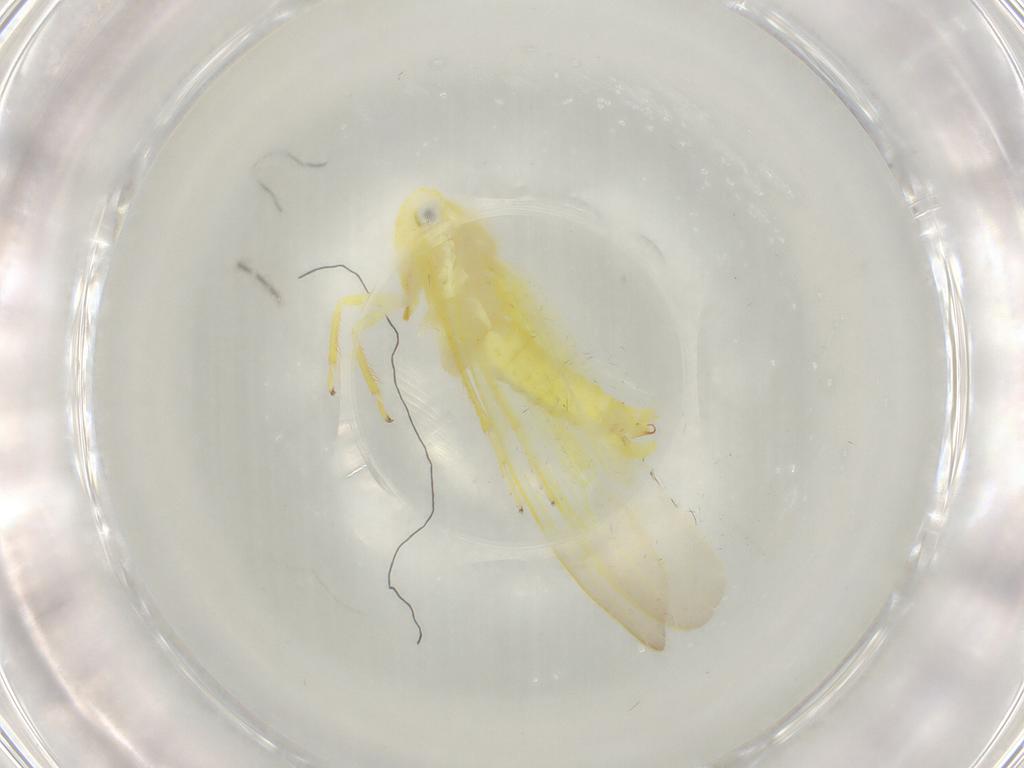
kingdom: Animalia
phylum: Arthropoda
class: Insecta
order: Hemiptera
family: Cicadellidae
